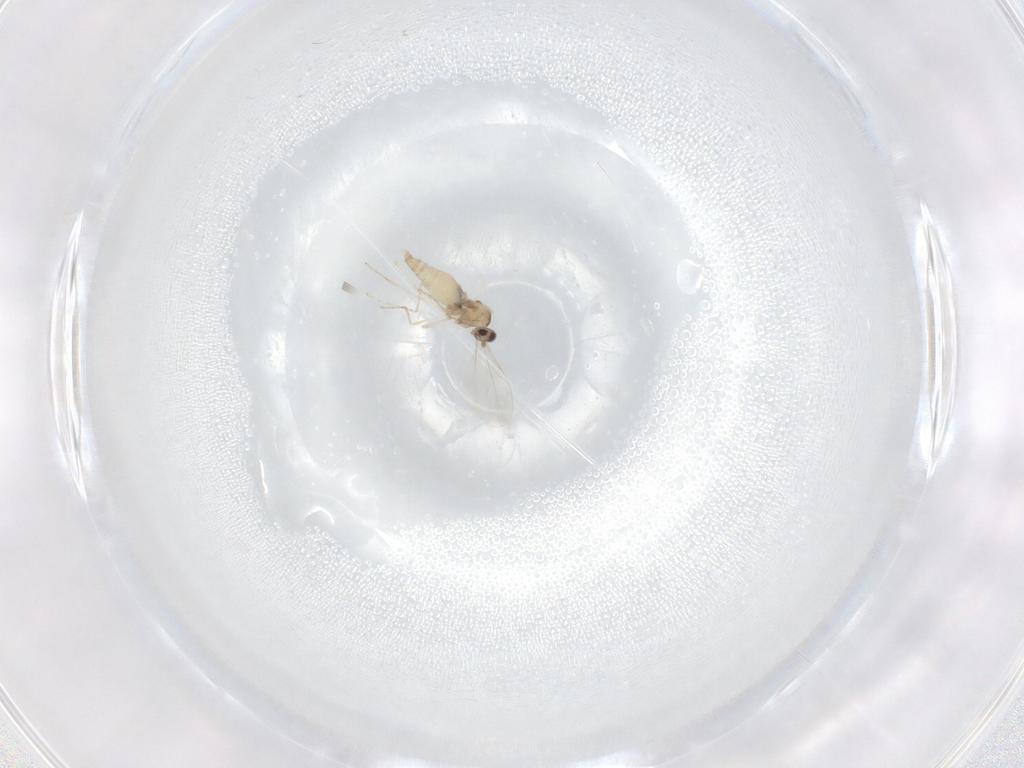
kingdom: Animalia
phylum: Arthropoda
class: Insecta
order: Diptera
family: Cecidomyiidae
